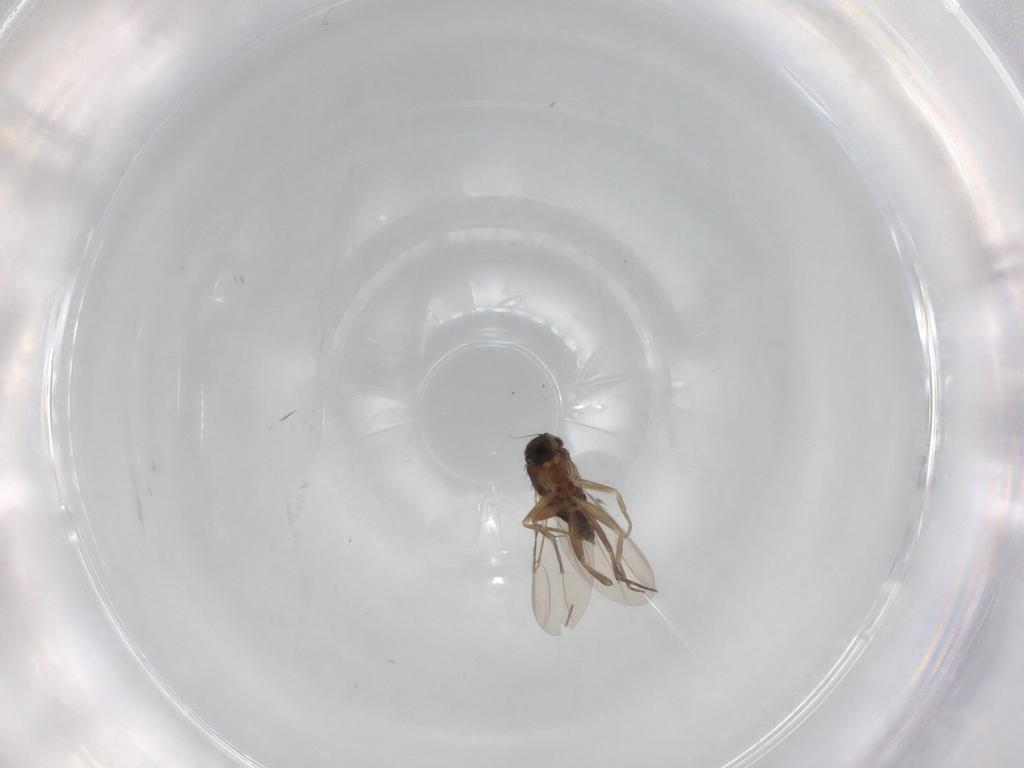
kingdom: Animalia
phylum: Arthropoda
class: Insecta
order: Diptera
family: Phoridae
